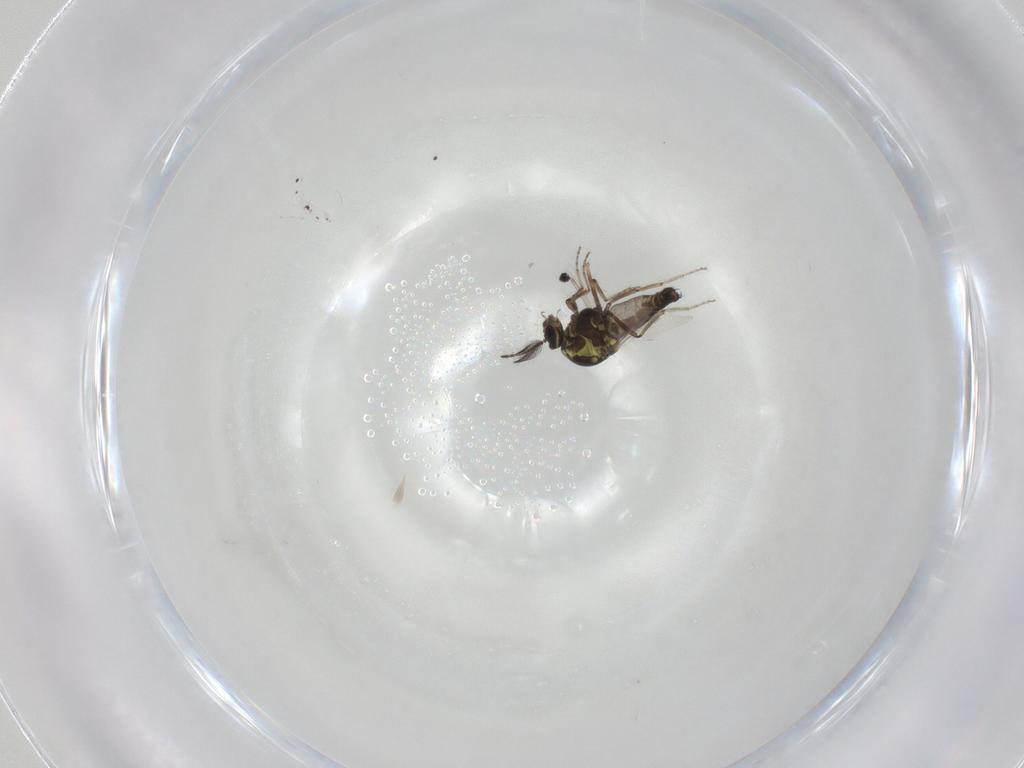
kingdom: Animalia
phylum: Arthropoda
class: Insecta
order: Diptera
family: Ceratopogonidae
